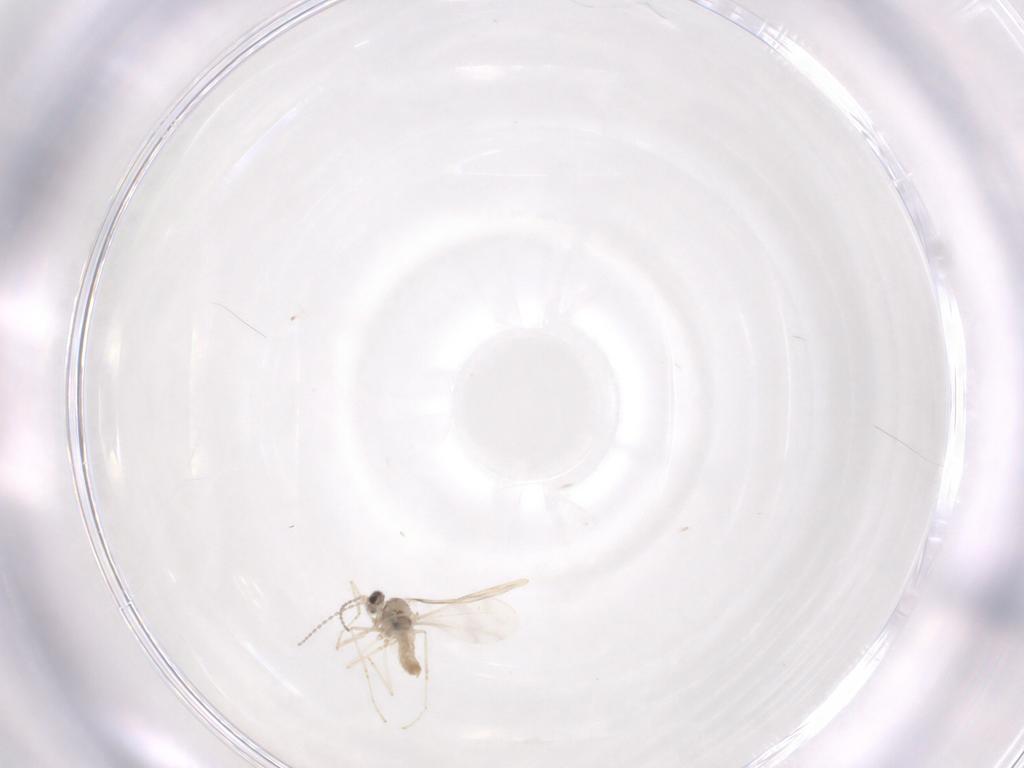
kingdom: Animalia
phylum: Arthropoda
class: Insecta
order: Diptera
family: Cecidomyiidae
